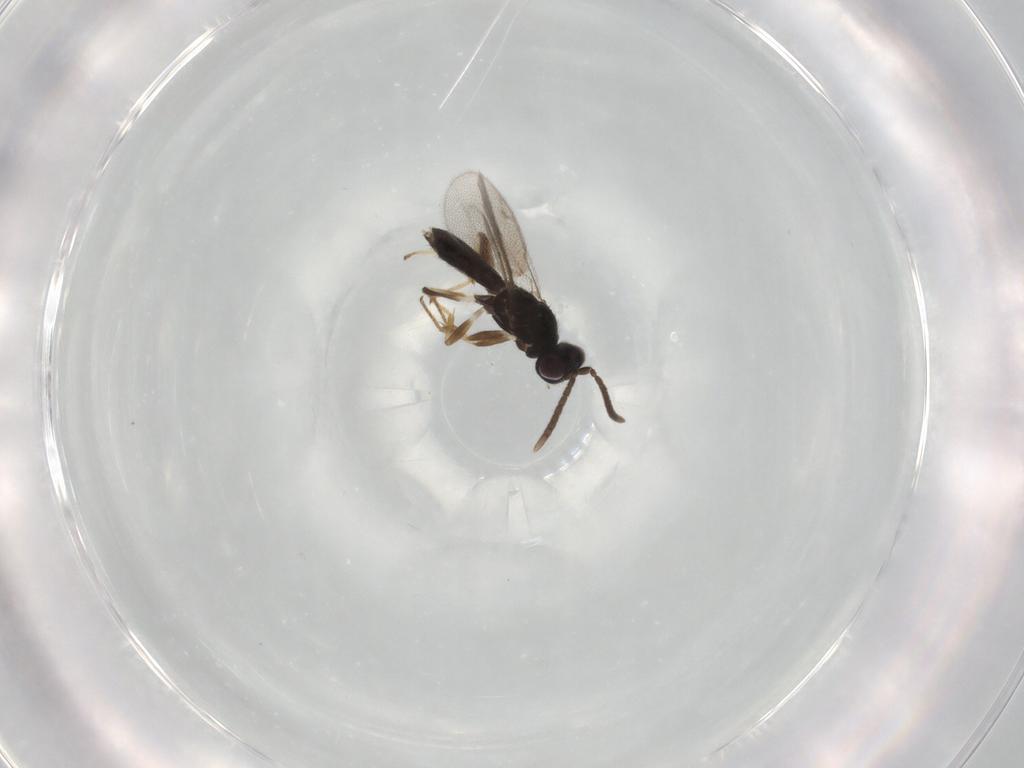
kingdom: Animalia
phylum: Arthropoda
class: Insecta
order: Hymenoptera
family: Eupelmidae
